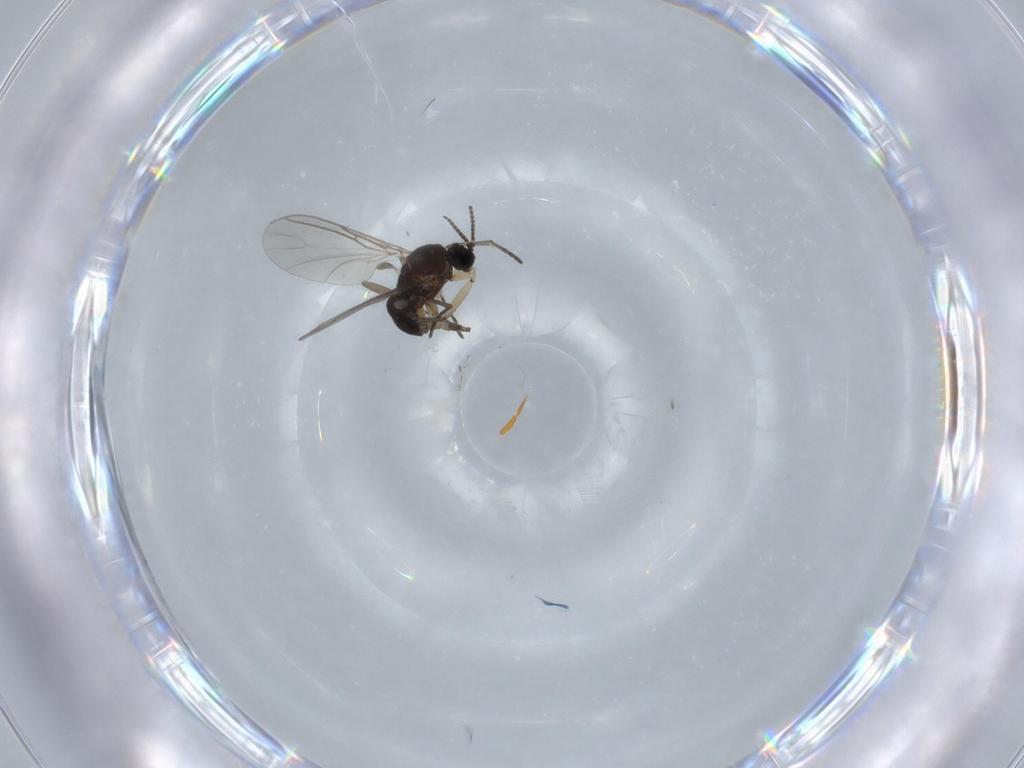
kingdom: Animalia
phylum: Arthropoda
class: Insecta
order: Diptera
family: Sciaridae
